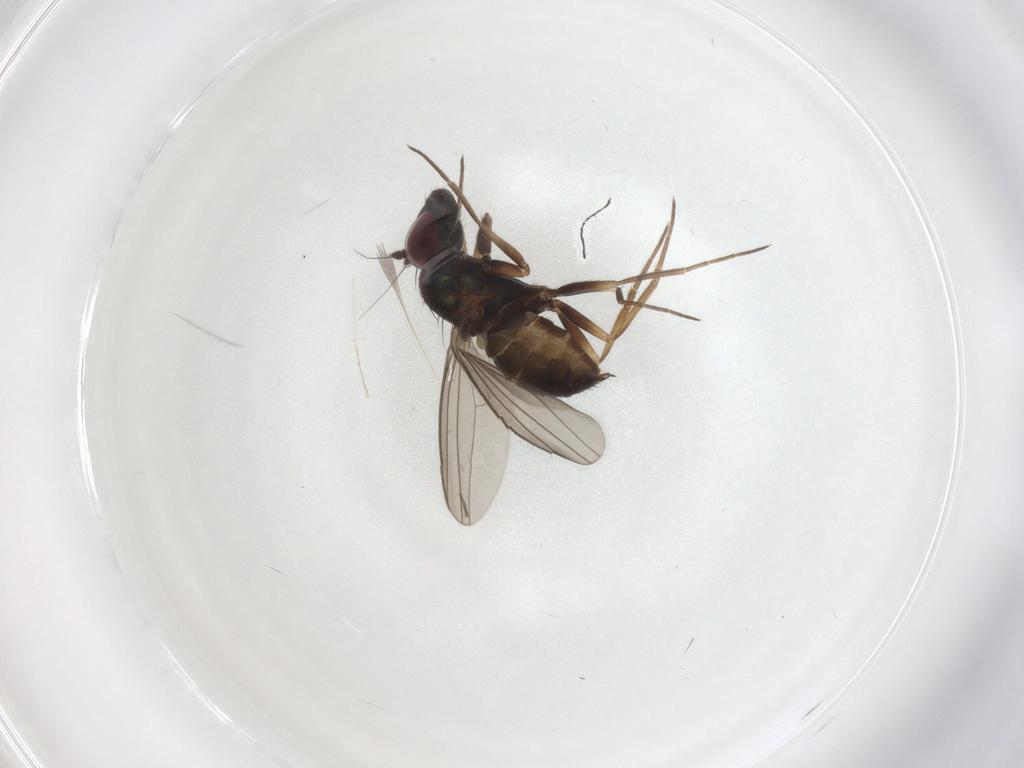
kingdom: Animalia
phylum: Arthropoda
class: Insecta
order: Diptera
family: Dolichopodidae
